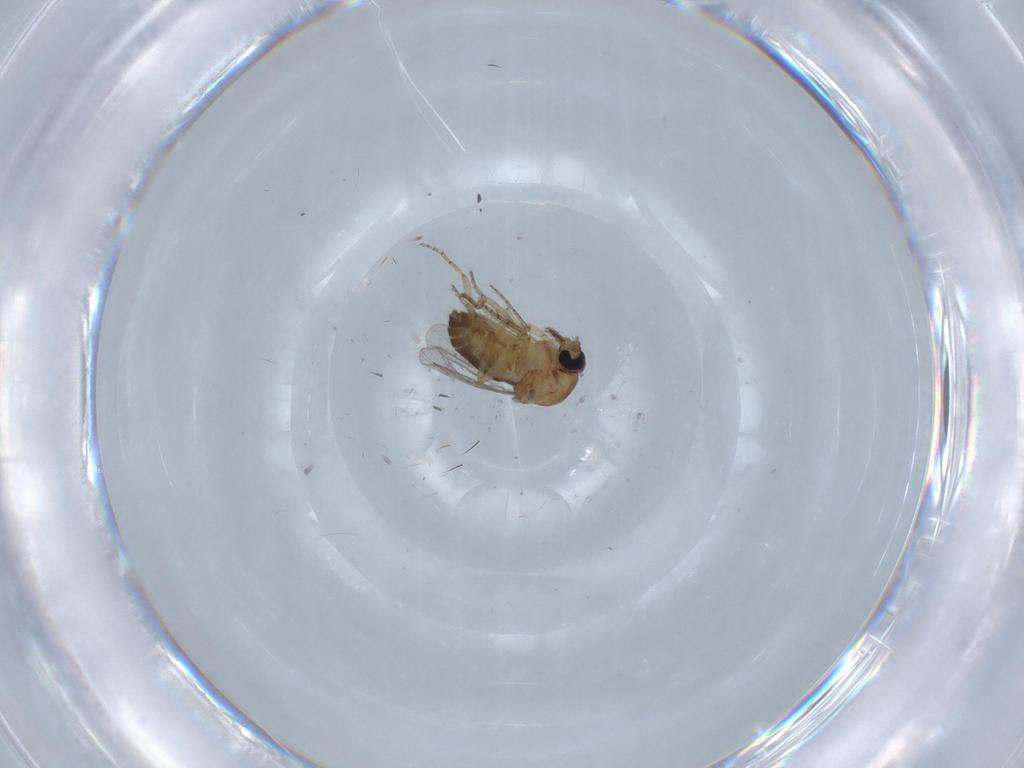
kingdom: Animalia
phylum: Arthropoda
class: Insecta
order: Diptera
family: Ceratopogonidae
